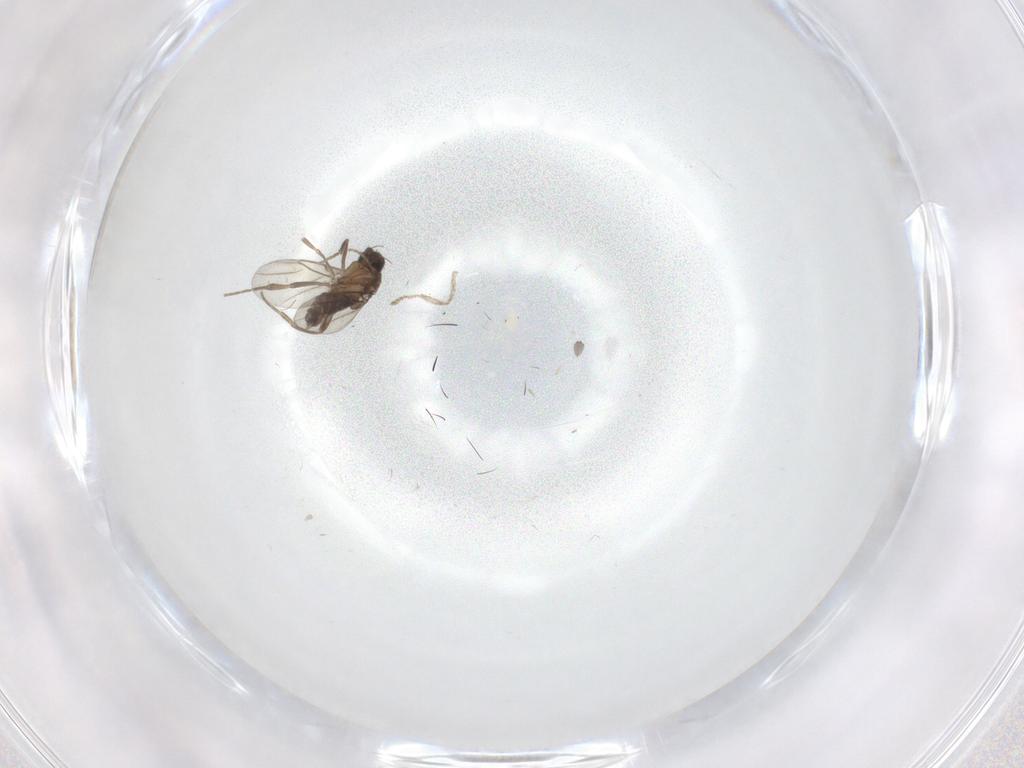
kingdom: Animalia
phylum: Arthropoda
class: Insecta
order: Diptera
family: Phoridae
